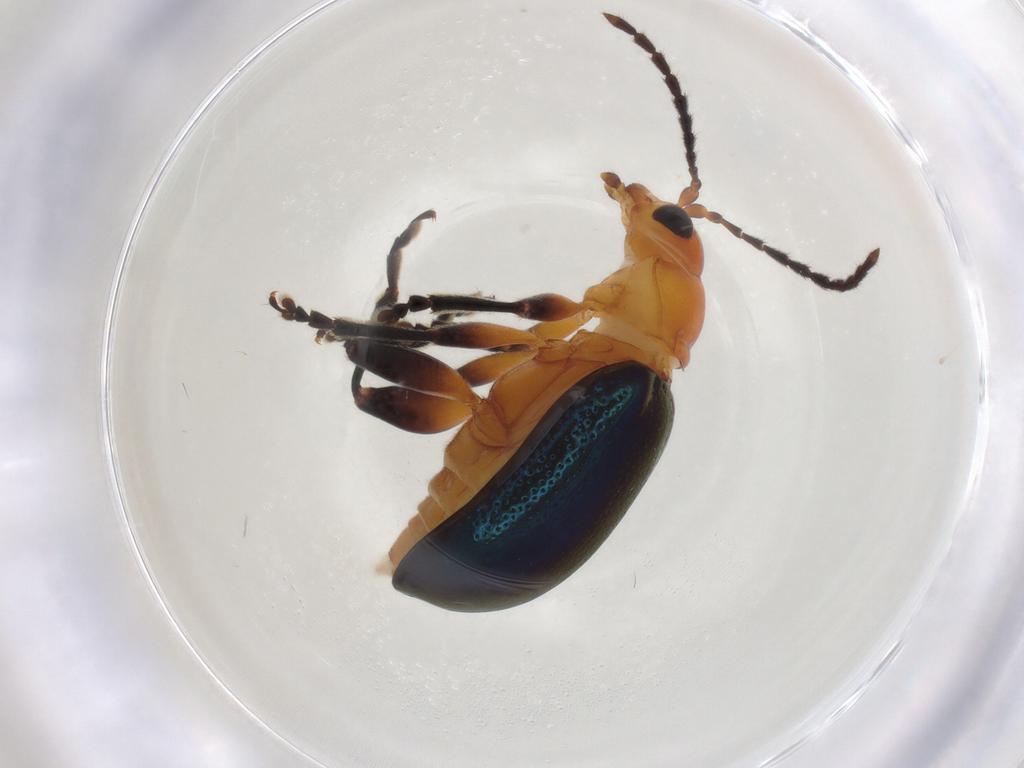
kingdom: Animalia
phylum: Arthropoda
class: Insecta
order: Coleoptera
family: Chrysomelidae
